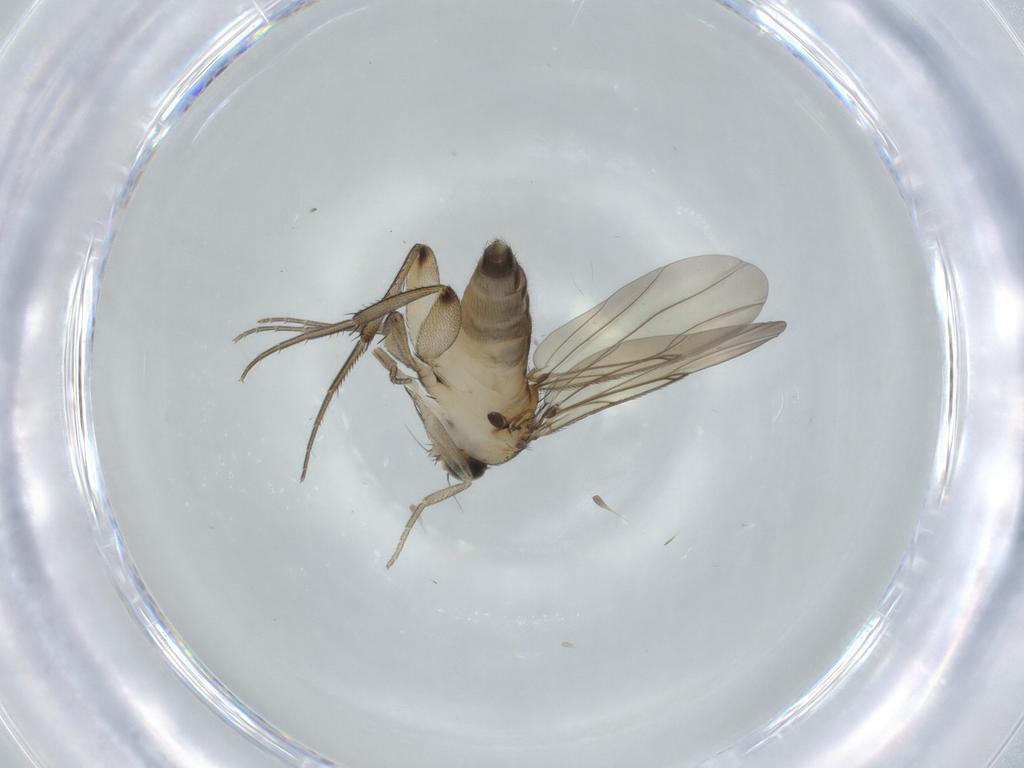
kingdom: Animalia
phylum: Arthropoda
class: Insecta
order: Diptera
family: Phoridae
